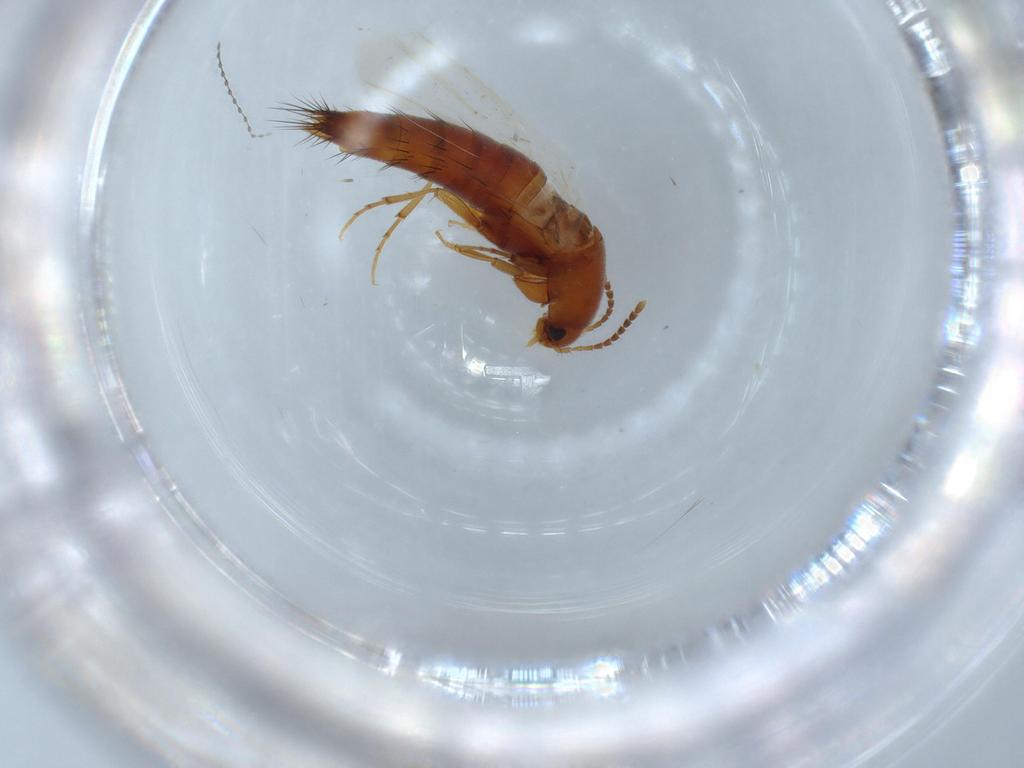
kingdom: Animalia
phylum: Arthropoda
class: Insecta
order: Coleoptera
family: Staphylinidae
